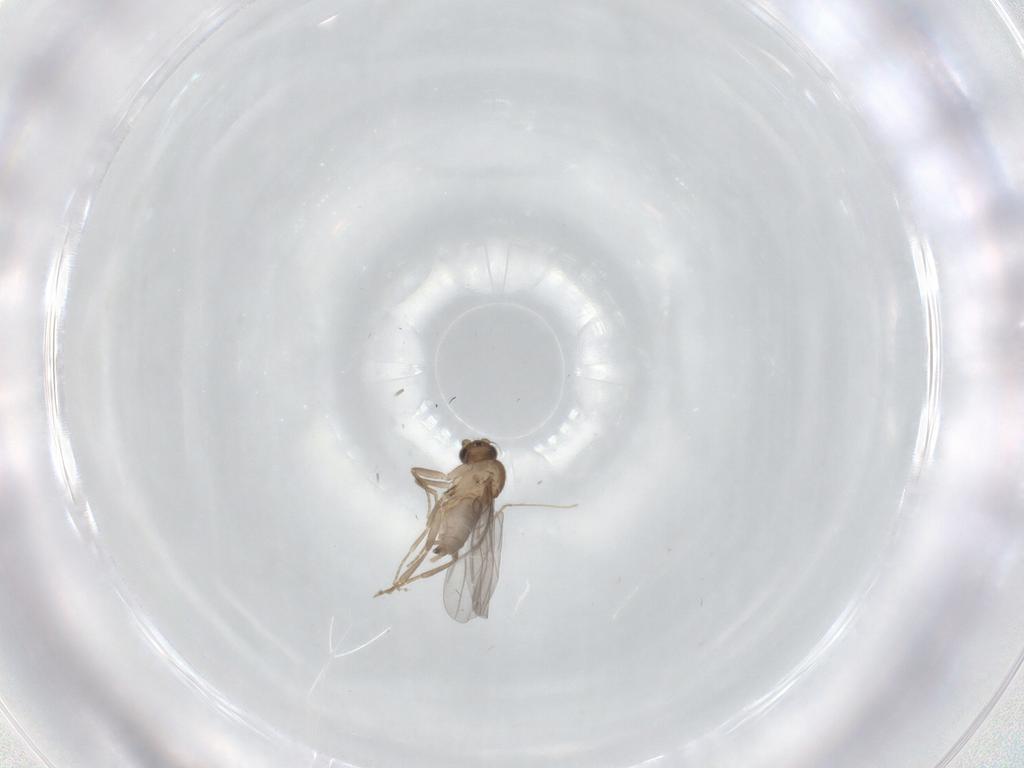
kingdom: Animalia
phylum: Arthropoda
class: Insecta
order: Diptera
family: Psychodidae
